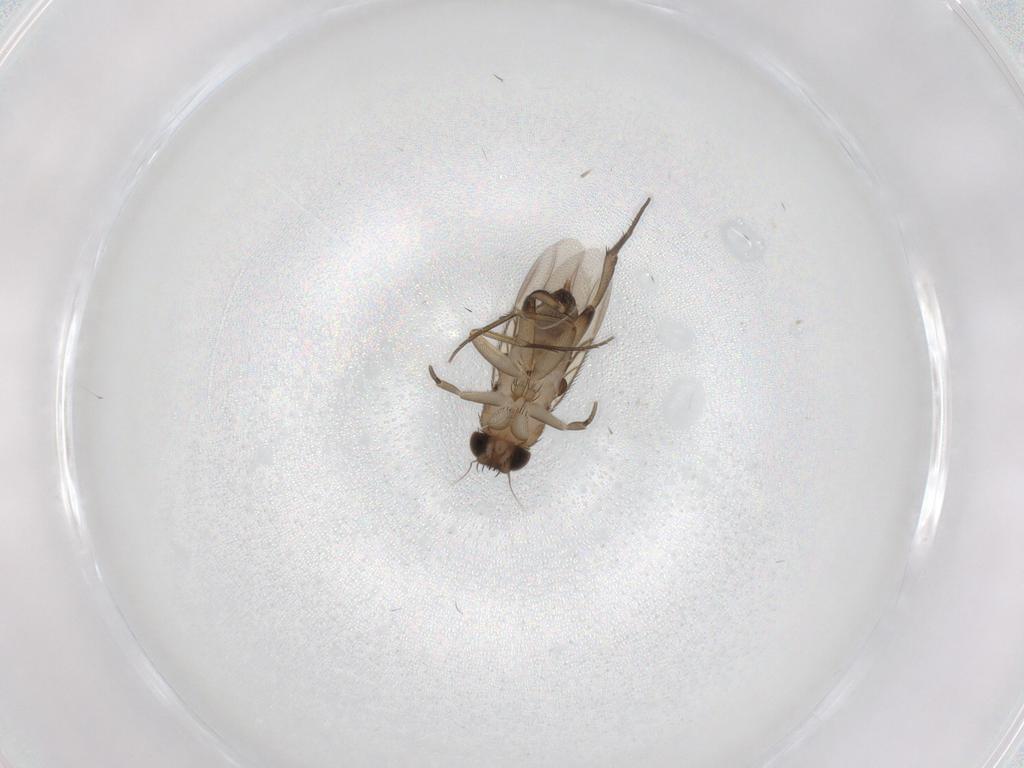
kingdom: Animalia
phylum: Arthropoda
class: Insecta
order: Diptera
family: Phoridae
